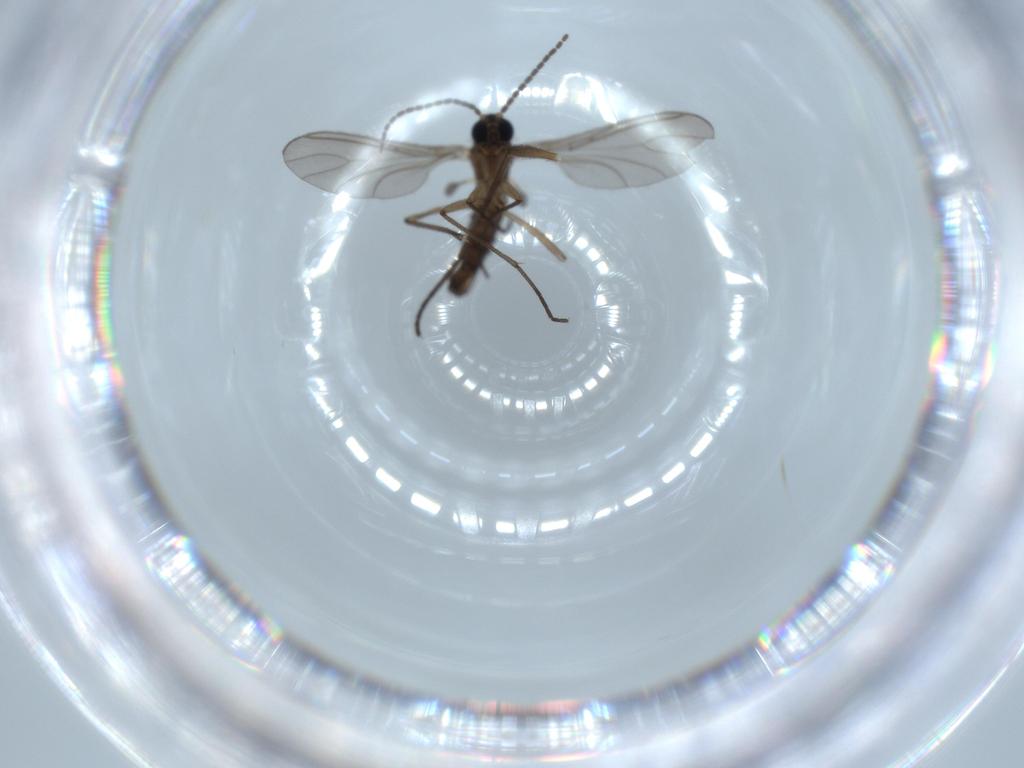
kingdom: Animalia
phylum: Arthropoda
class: Insecta
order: Diptera
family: Sciaridae
